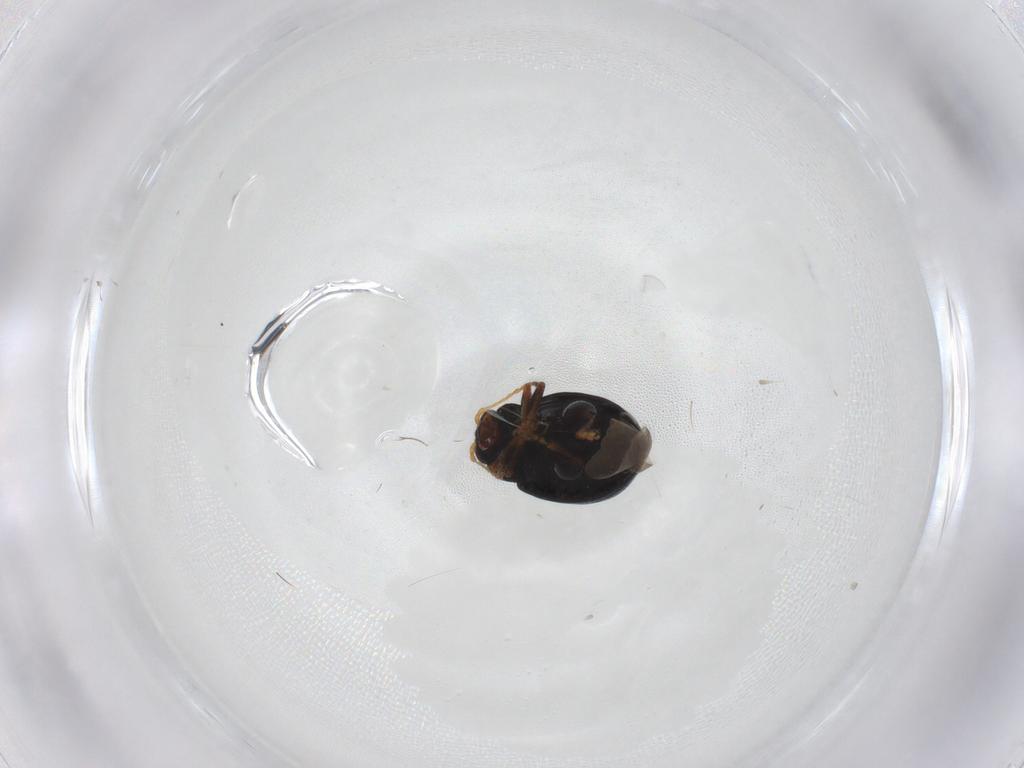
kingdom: Animalia
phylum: Arthropoda
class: Insecta
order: Coleoptera
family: Chrysomelidae
